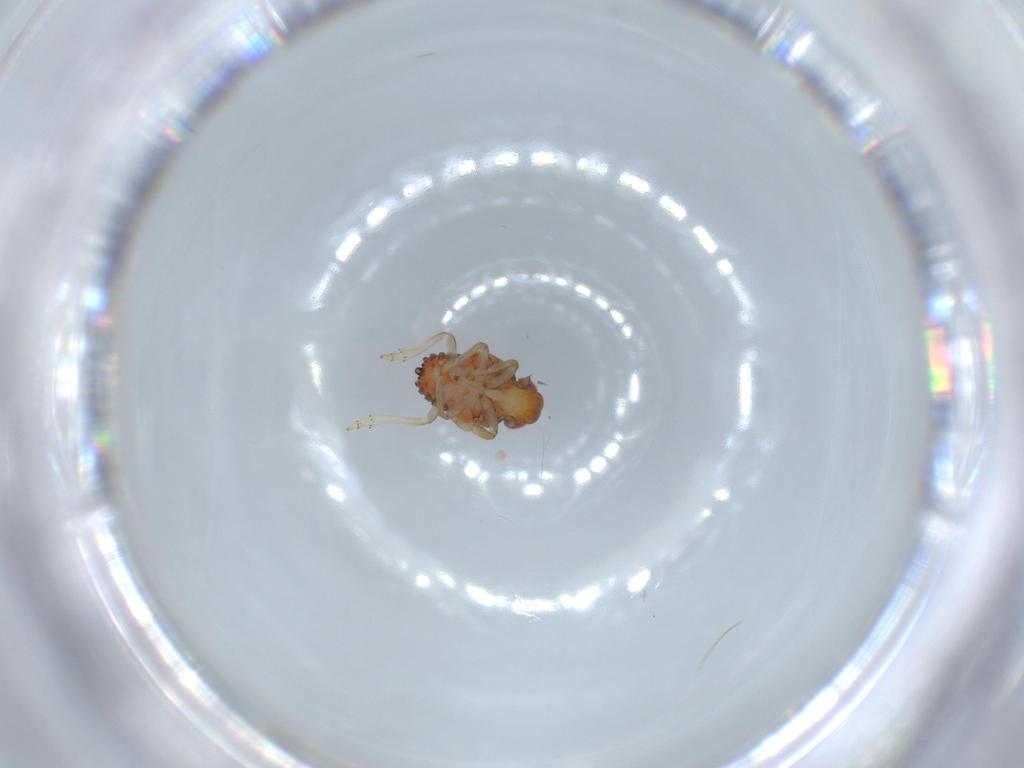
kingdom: Animalia
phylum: Arthropoda
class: Insecta
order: Hemiptera
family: Issidae
